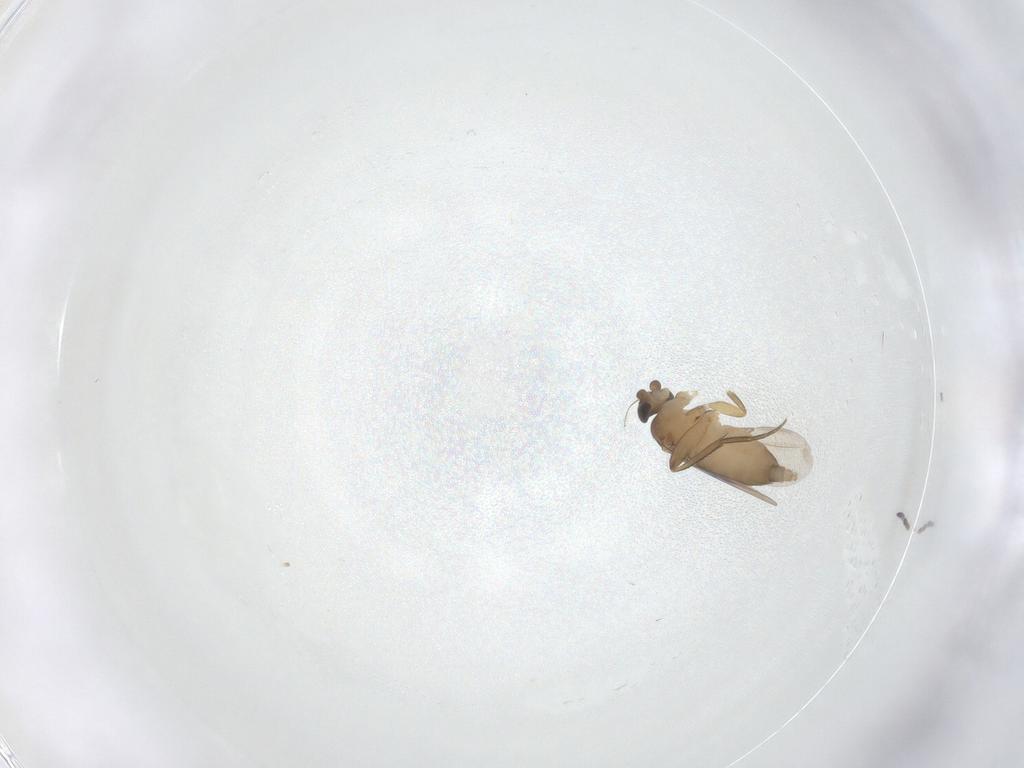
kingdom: Animalia
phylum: Arthropoda
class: Insecta
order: Diptera
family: Phoridae
